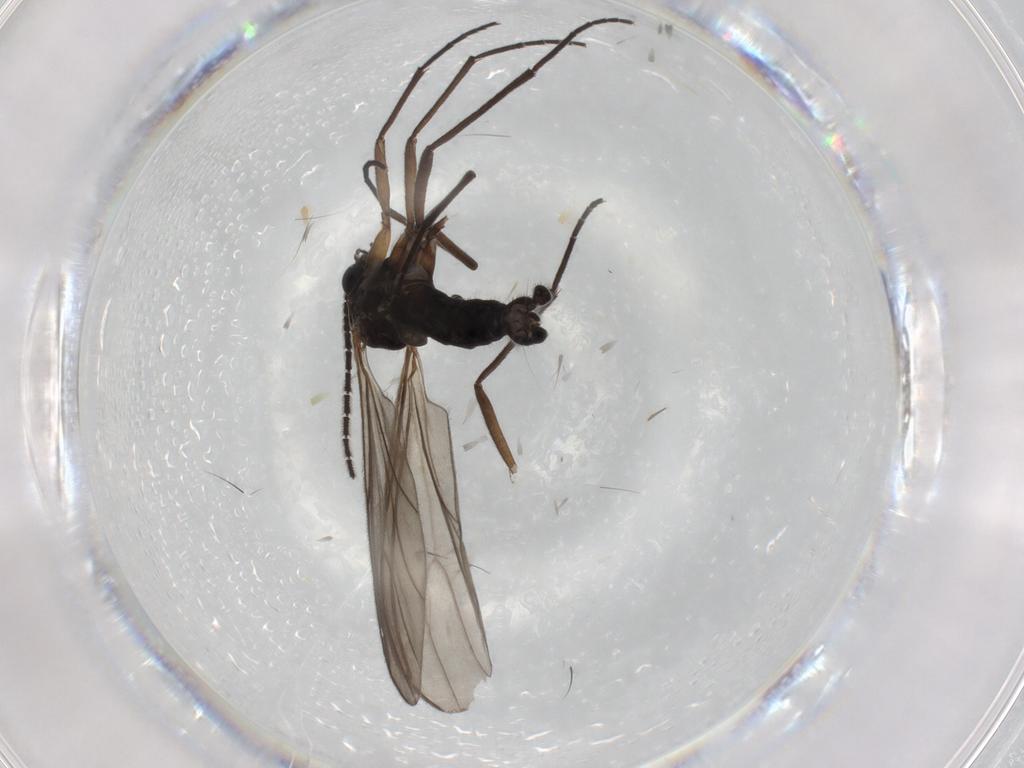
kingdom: Animalia
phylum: Arthropoda
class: Insecta
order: Diptera
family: Sciaridae
